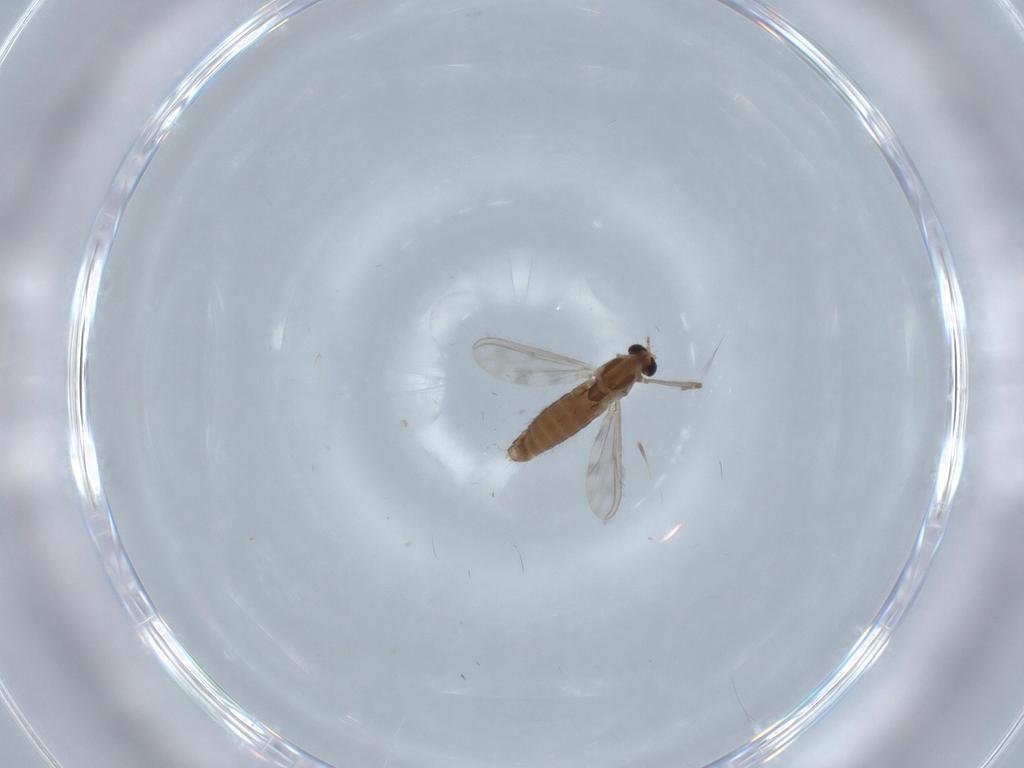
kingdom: Animalia
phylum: Arthropoda
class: Insecta
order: Diptera
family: Chironomidae
